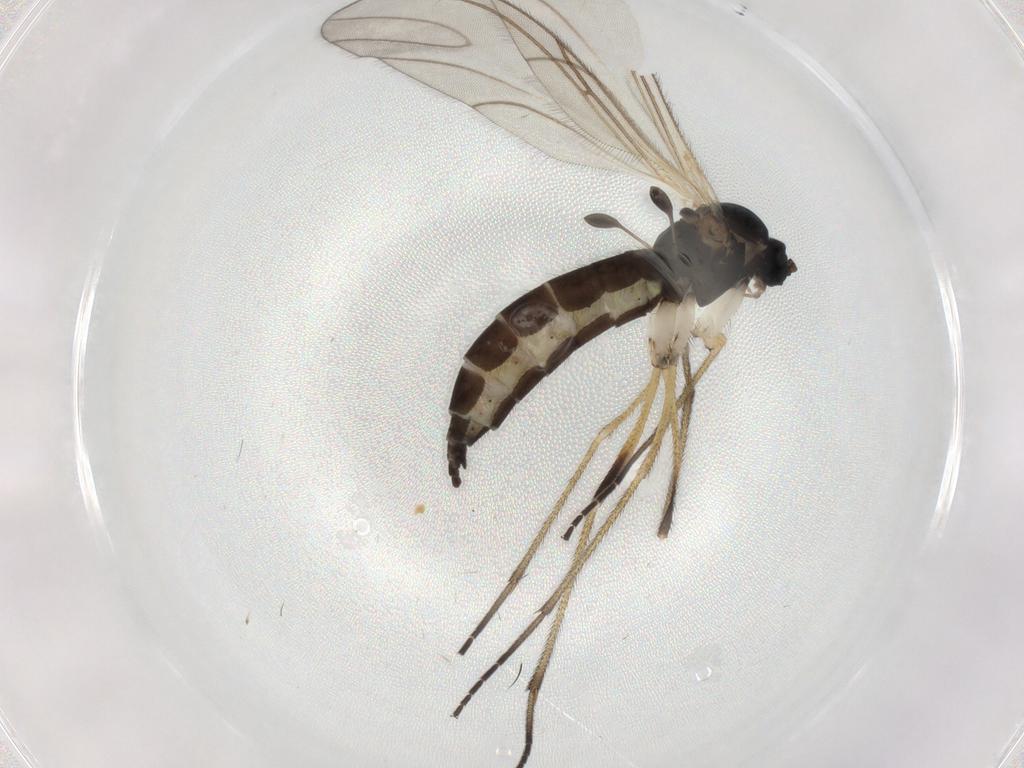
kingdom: Animalia
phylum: Arthropoda
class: Insecta
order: Diptera
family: Sciaridae
